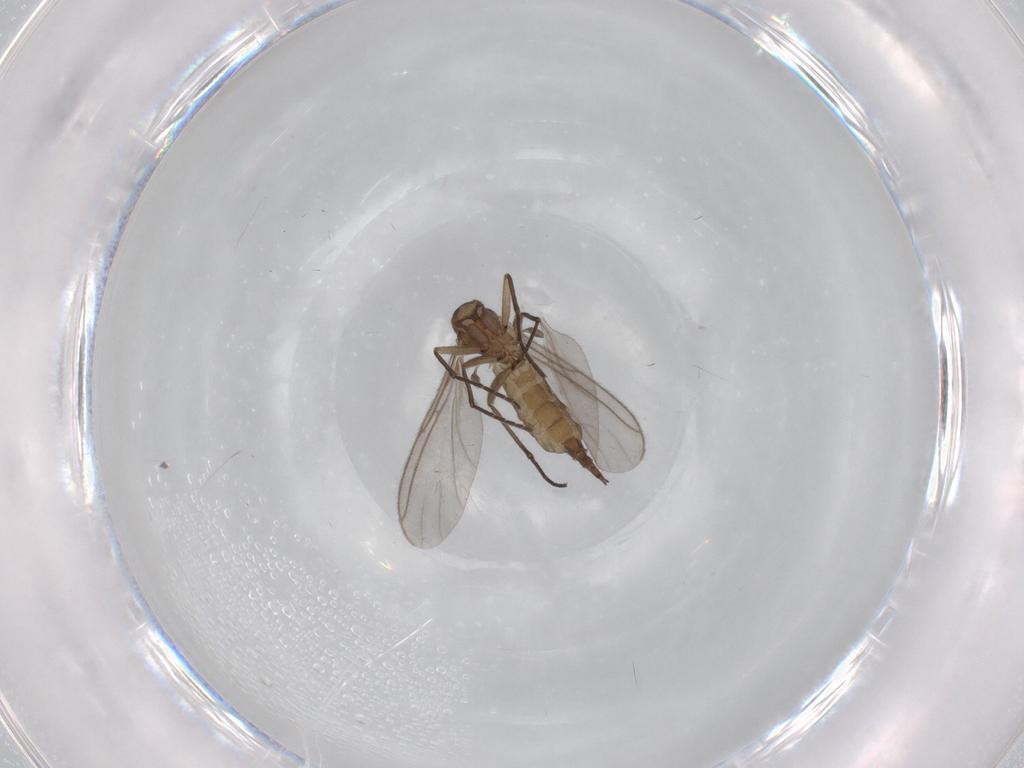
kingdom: Animalia
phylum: Arthropoda
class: Insecta
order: Diptera
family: Sciaridae
